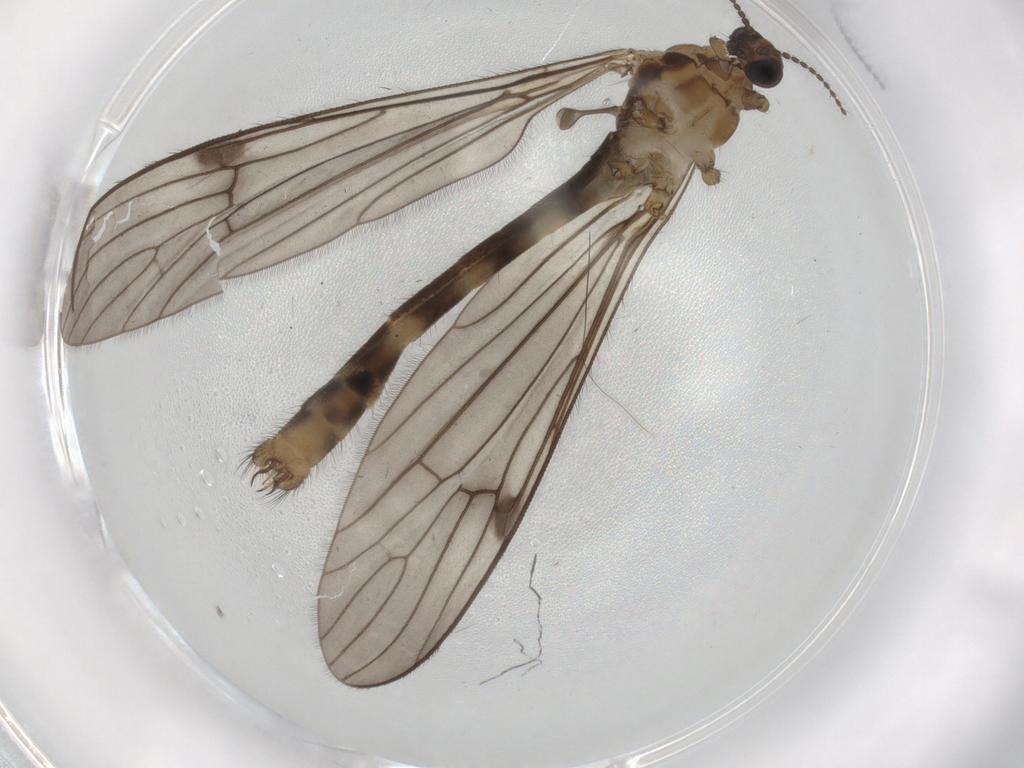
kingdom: Animalia
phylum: Arthropoda
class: Insecta
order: Diptera
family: Limoniidae
